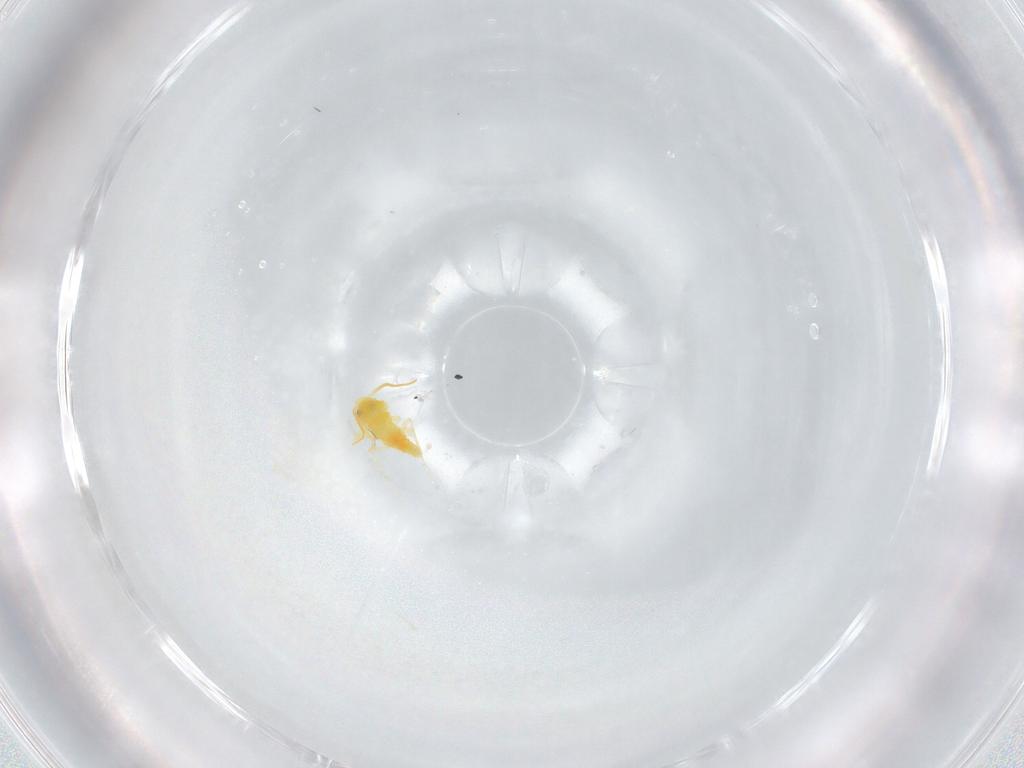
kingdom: Animalia
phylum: Arthropoda
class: Insecta
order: Hemiptera
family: Aleyrodidae
